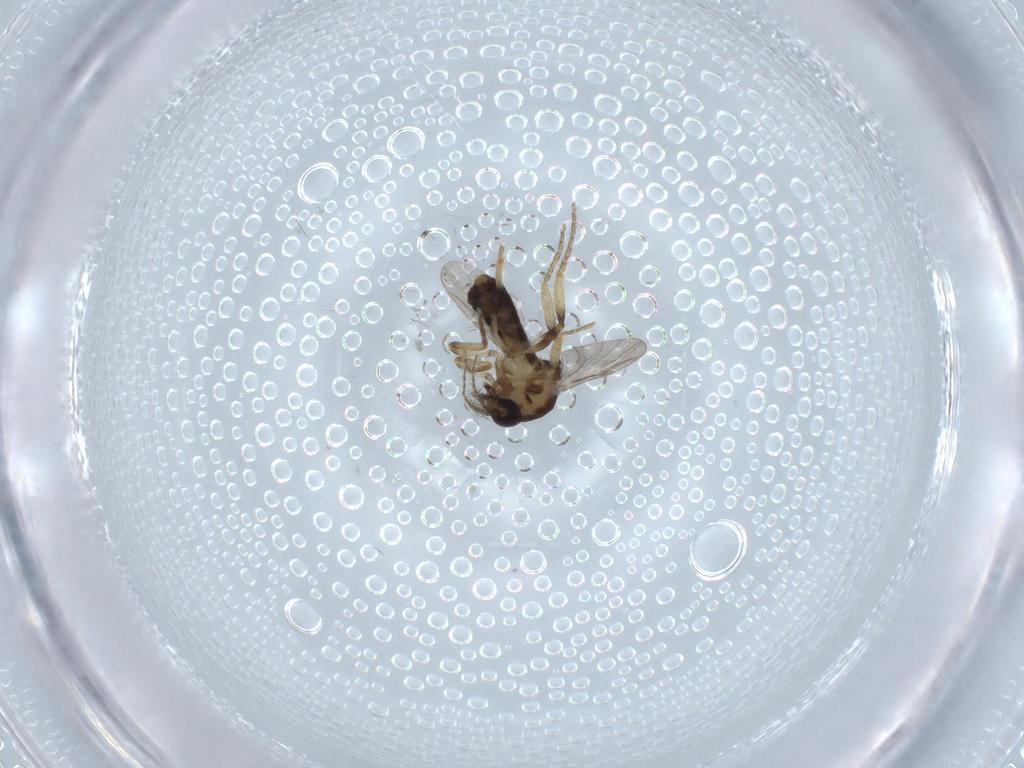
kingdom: Animalia
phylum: Arthropoda
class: Insecta
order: Diptera
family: Ceratopogonidae
